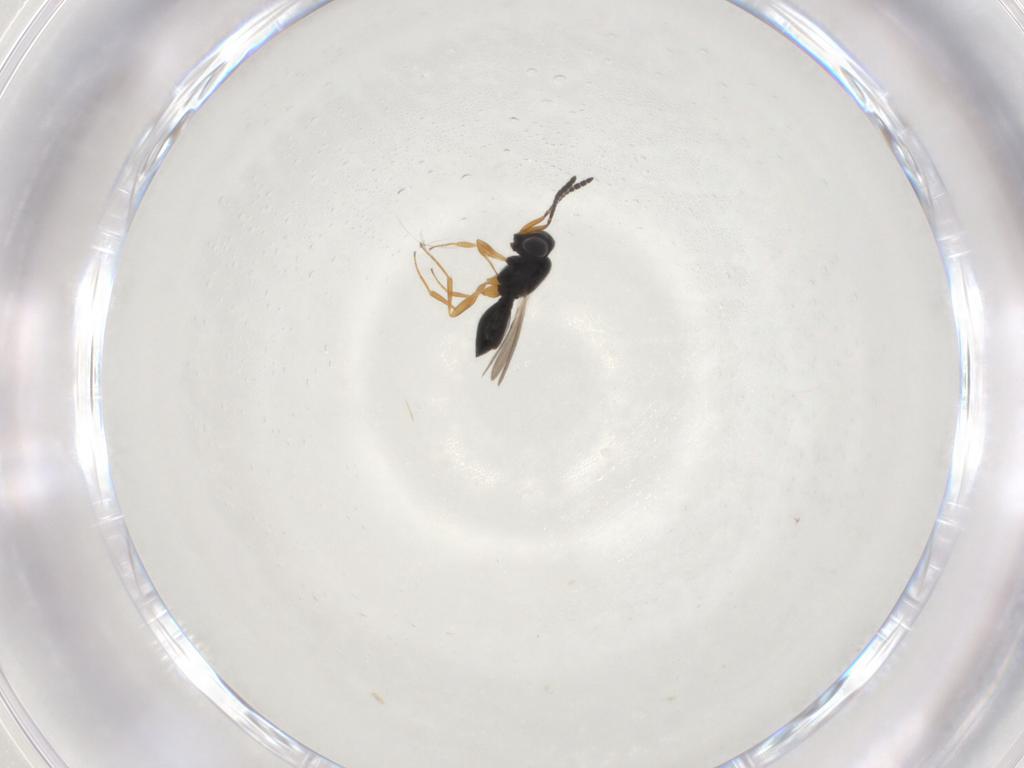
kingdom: Animalia
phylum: Arthropoda
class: Insecta
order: Hymenoptera
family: Scelionidae
